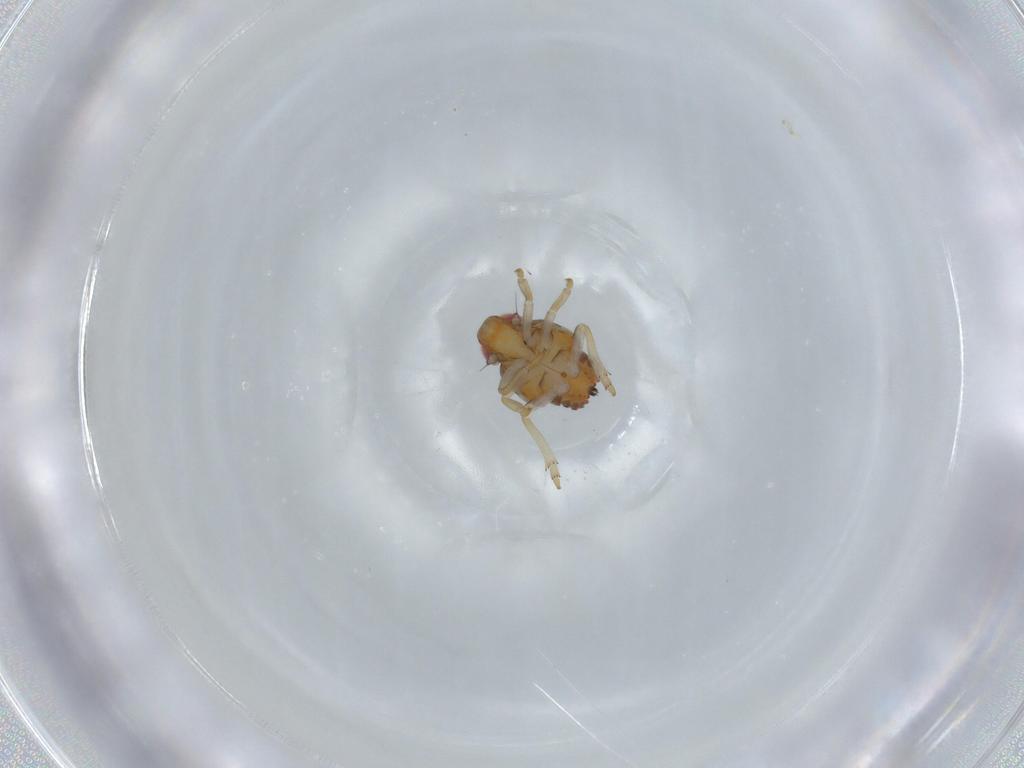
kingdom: Animalia
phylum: Arthropoda
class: Insecta
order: Hemiptera
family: Issidae
